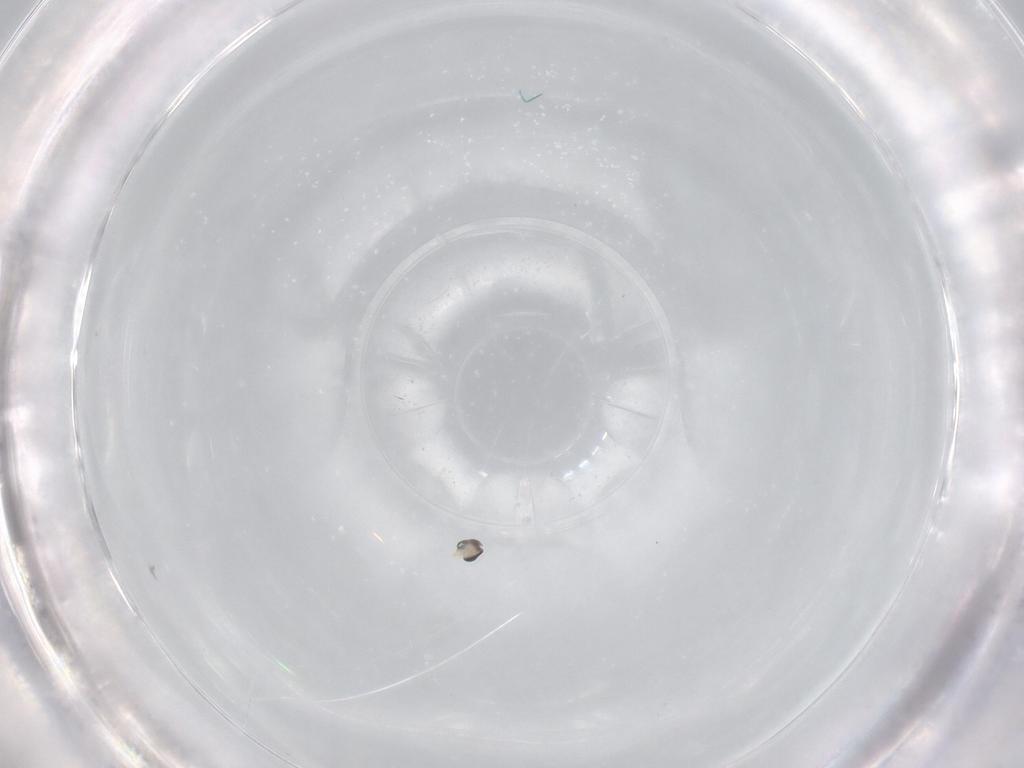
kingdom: Animalia
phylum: Arthropoda
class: Insecta
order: Diptera
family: Cecidomyiidae
